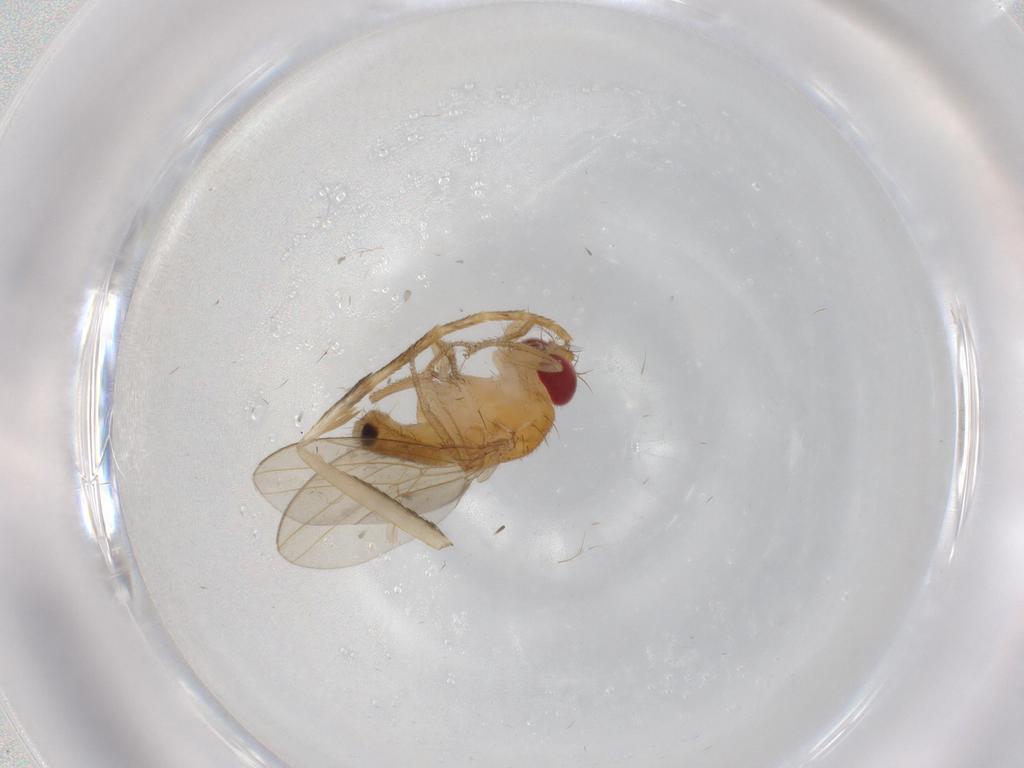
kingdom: Animalia
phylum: Arthropoda
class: Insecta
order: Diptera
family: Drosophilidae
